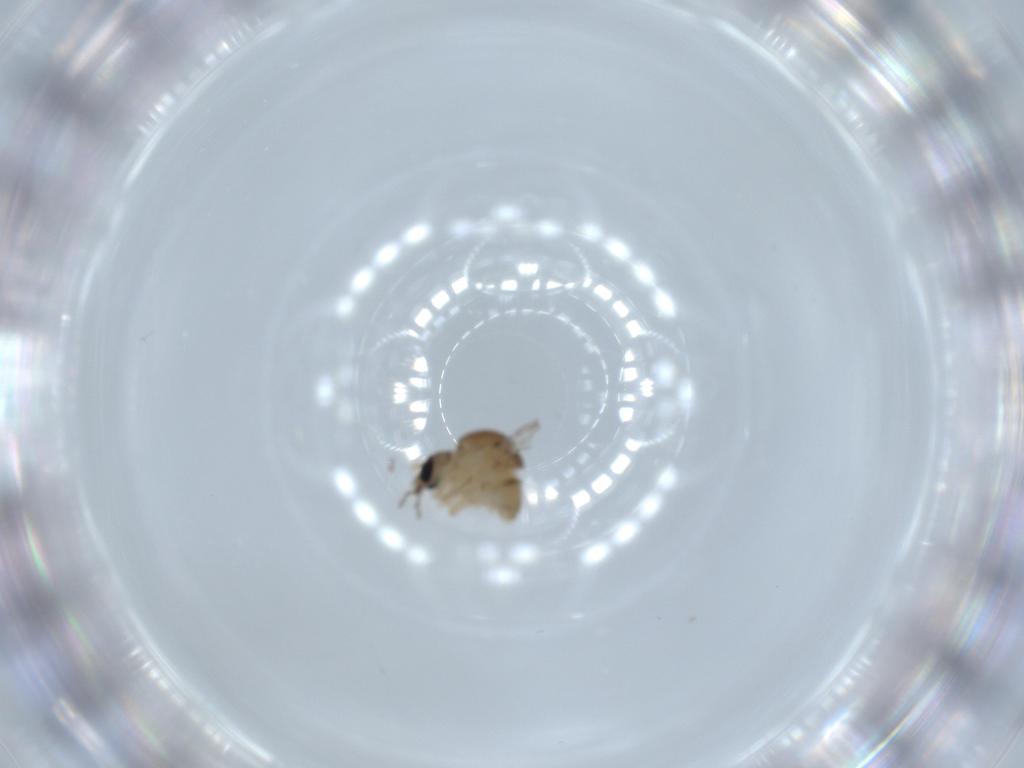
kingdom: Animalia
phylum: Arthropoda
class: Insecta
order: Diptera
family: Psychodidae
